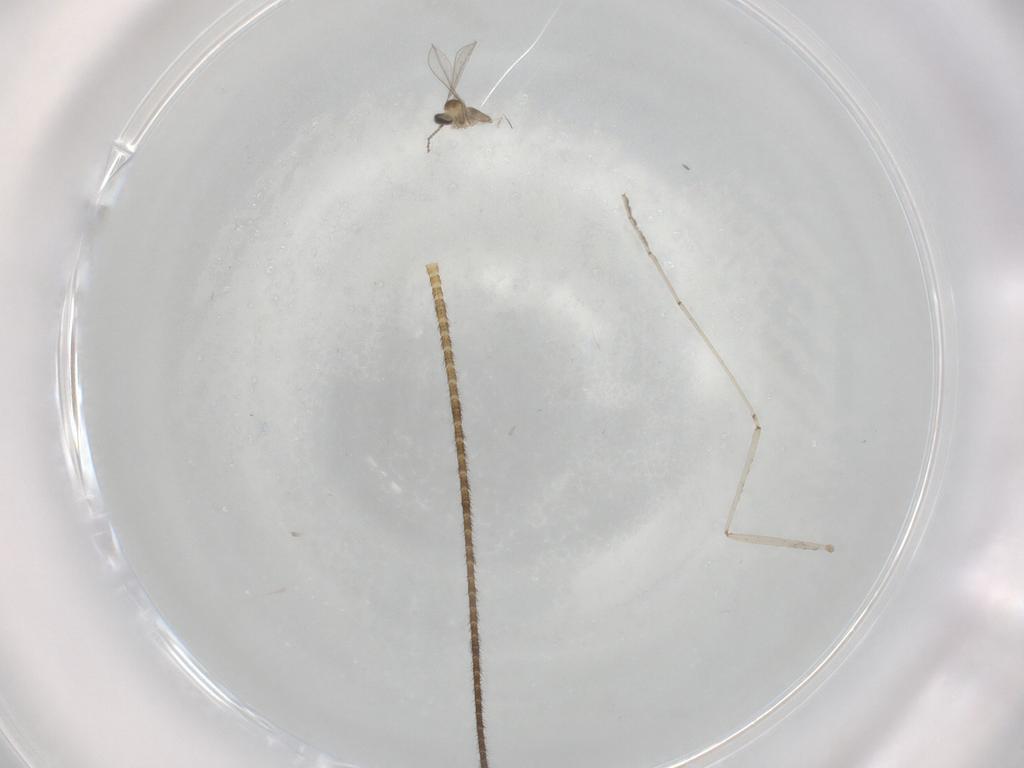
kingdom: Animalia
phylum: Arthropoda
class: Insecta
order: Diptera
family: Cecidomyiidae
